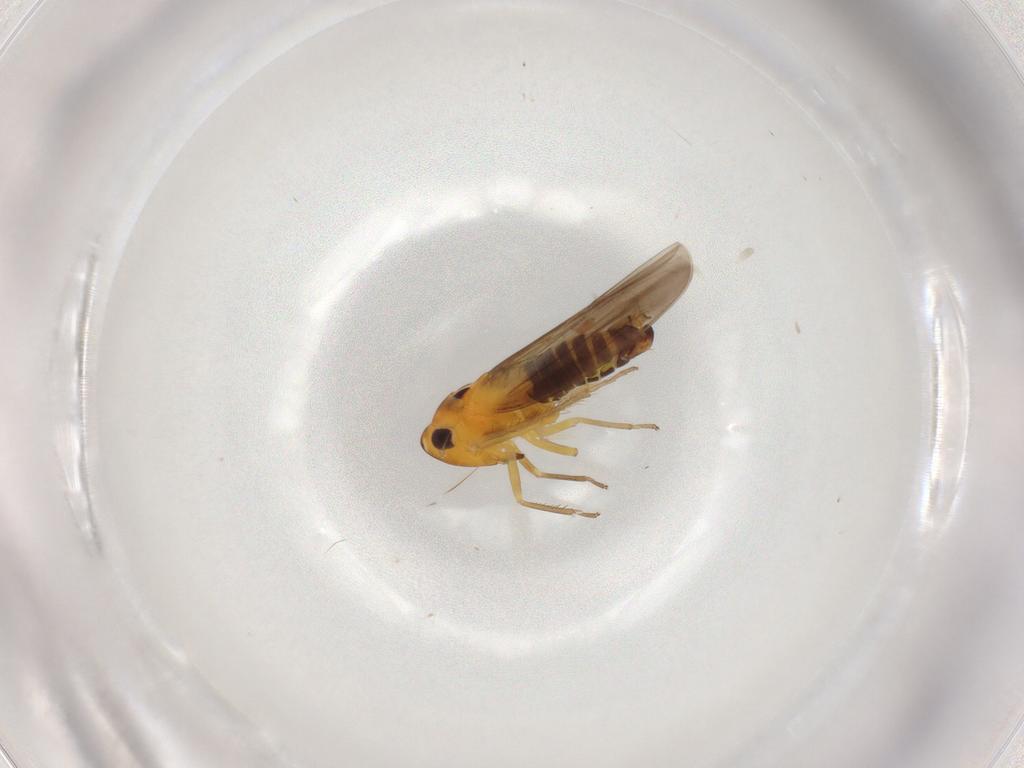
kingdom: Animalia
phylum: Arthropoda
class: Insecta
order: Hemiptera
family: Cicadellidae
